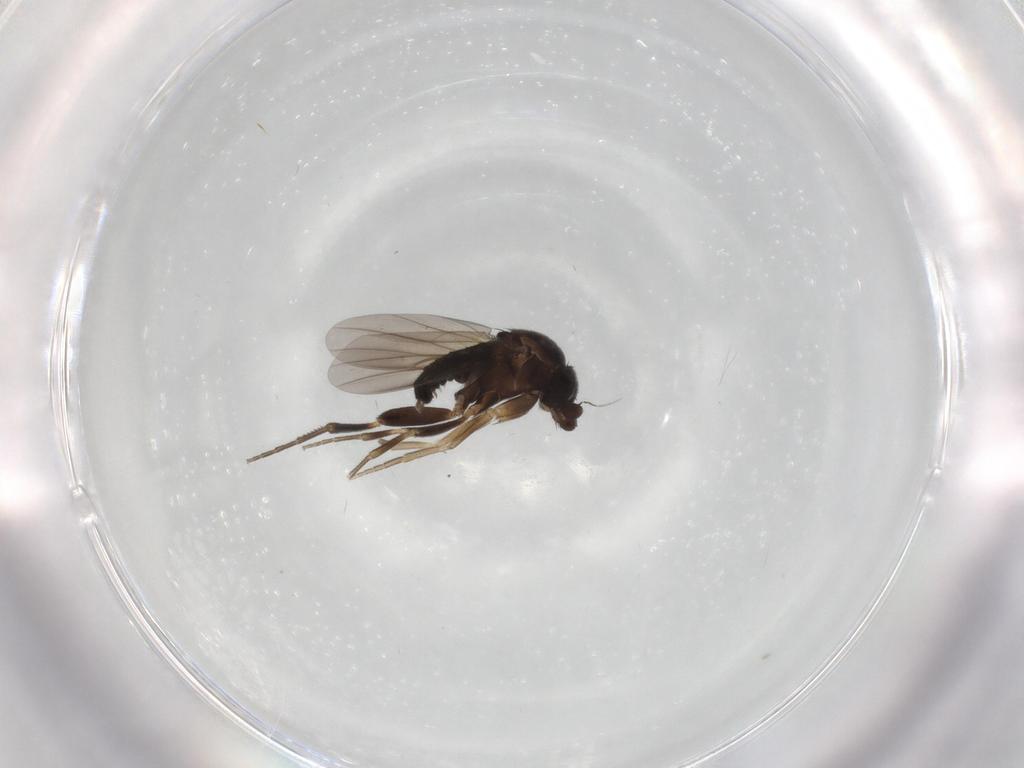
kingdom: Animalia
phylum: Arthropoda
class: Insecta
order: Diptera
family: Phoridae
